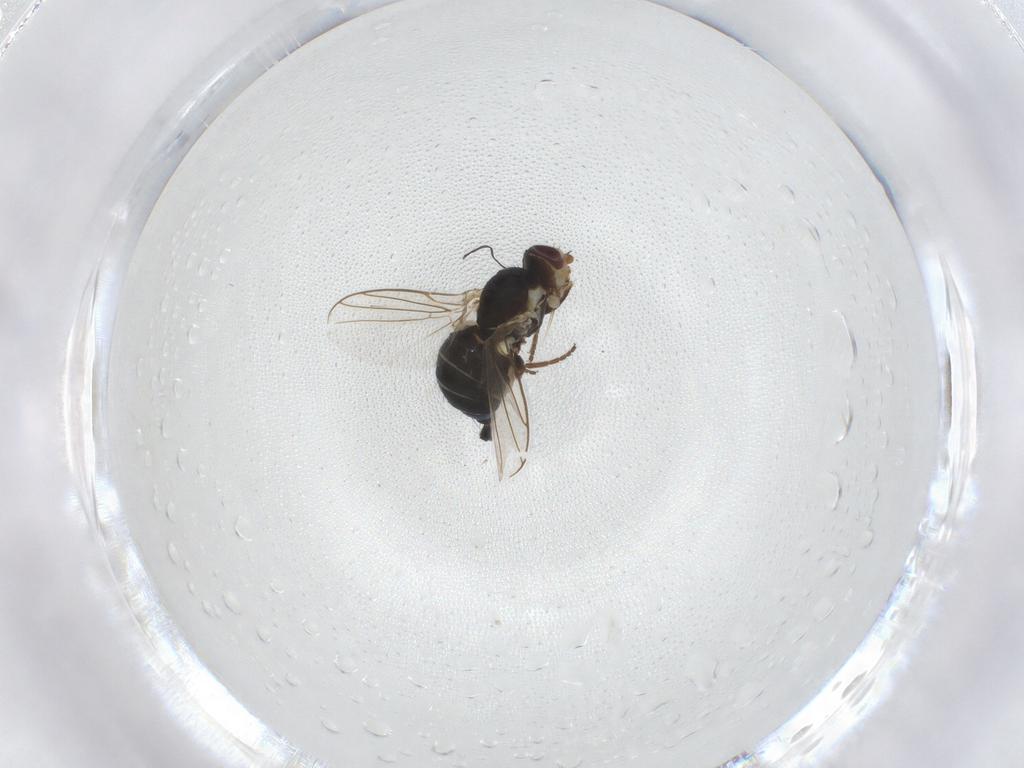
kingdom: Animalia
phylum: Arthropoda
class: Insecta
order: Diptera
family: Agromyzidae
